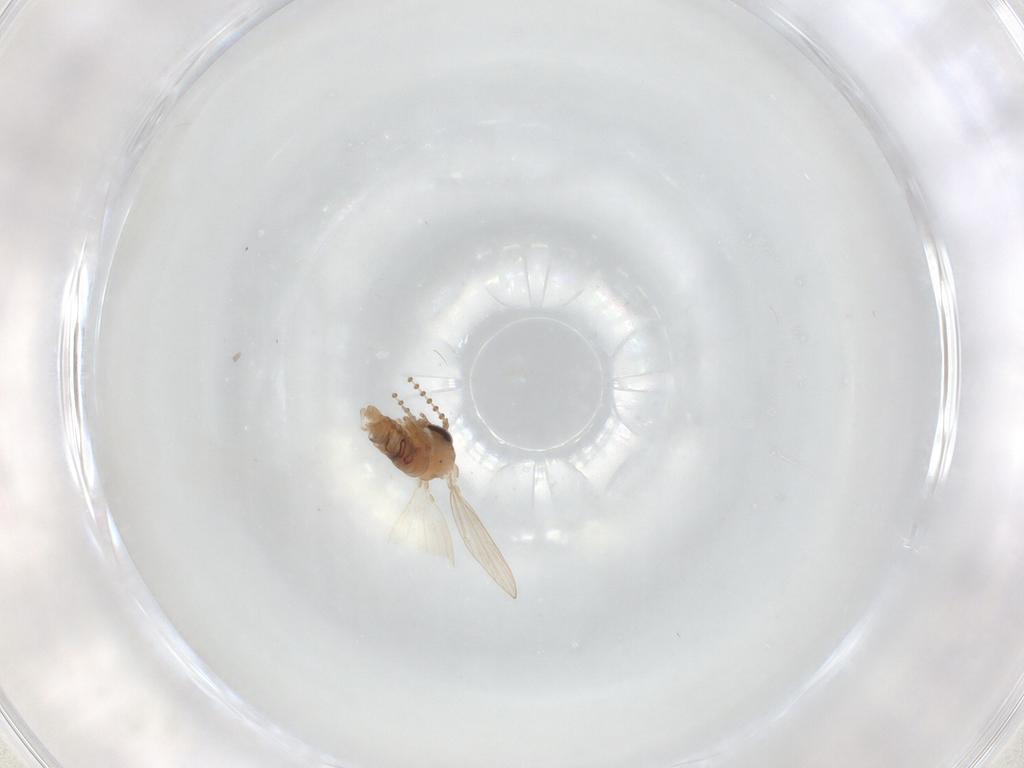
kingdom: Animalia
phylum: Arthropoda
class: Insecta
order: Diptera
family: Psychodidae
